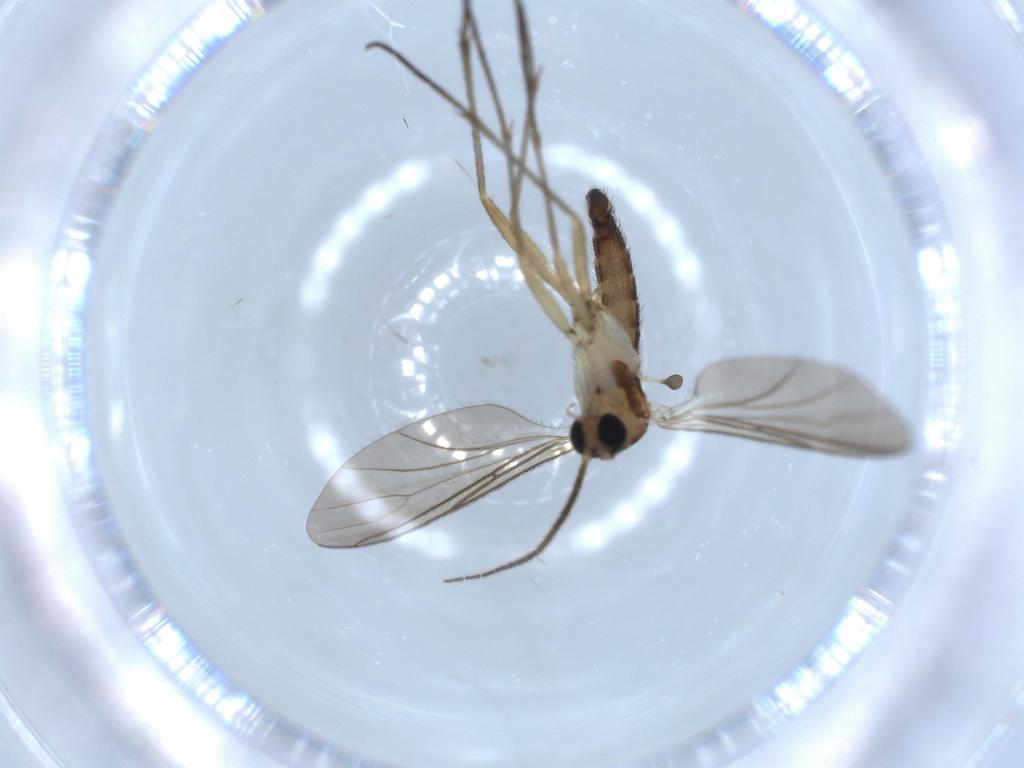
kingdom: Animalia
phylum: Arthropoda
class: Insecta
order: Diptera
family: Sciaridae
